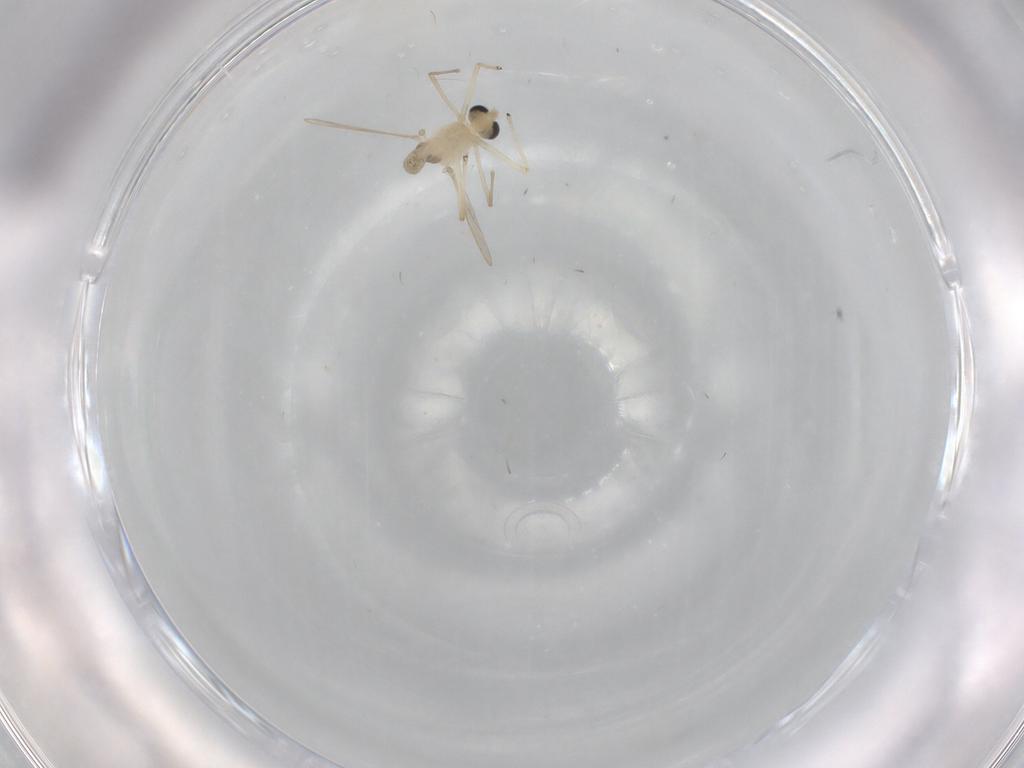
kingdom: Animalia
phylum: Arthropoda
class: Insecta
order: Diptera
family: Chironomidae
